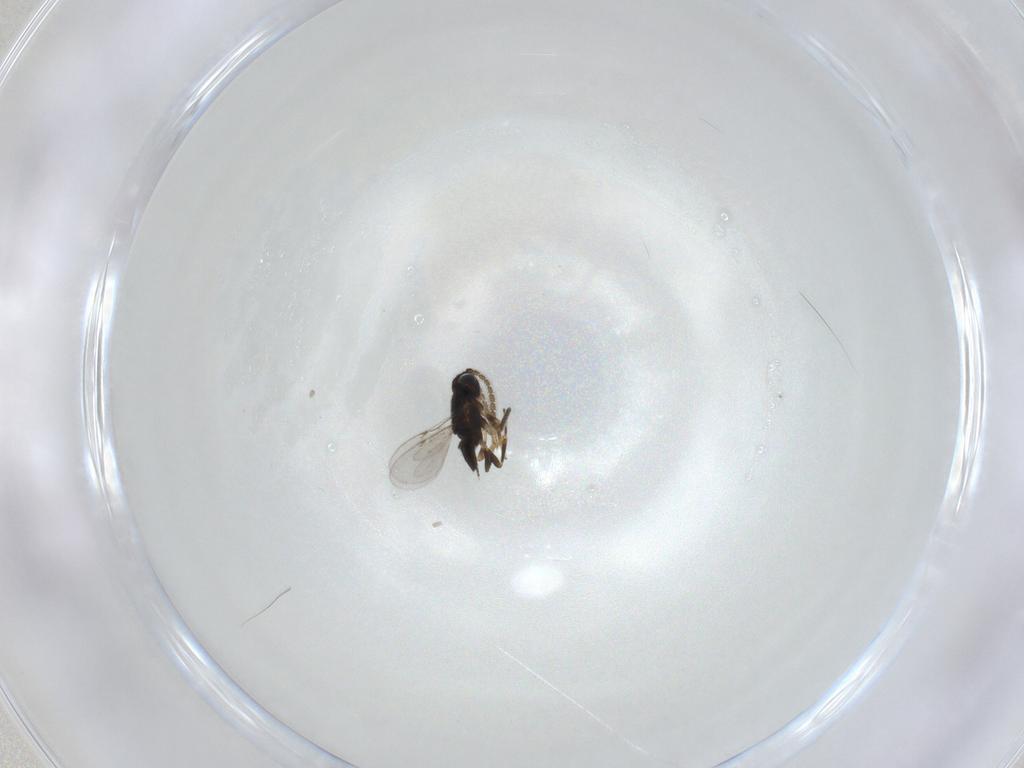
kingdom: Animalia
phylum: Arthropoda
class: Insecta
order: Diptera
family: Sciaridae
